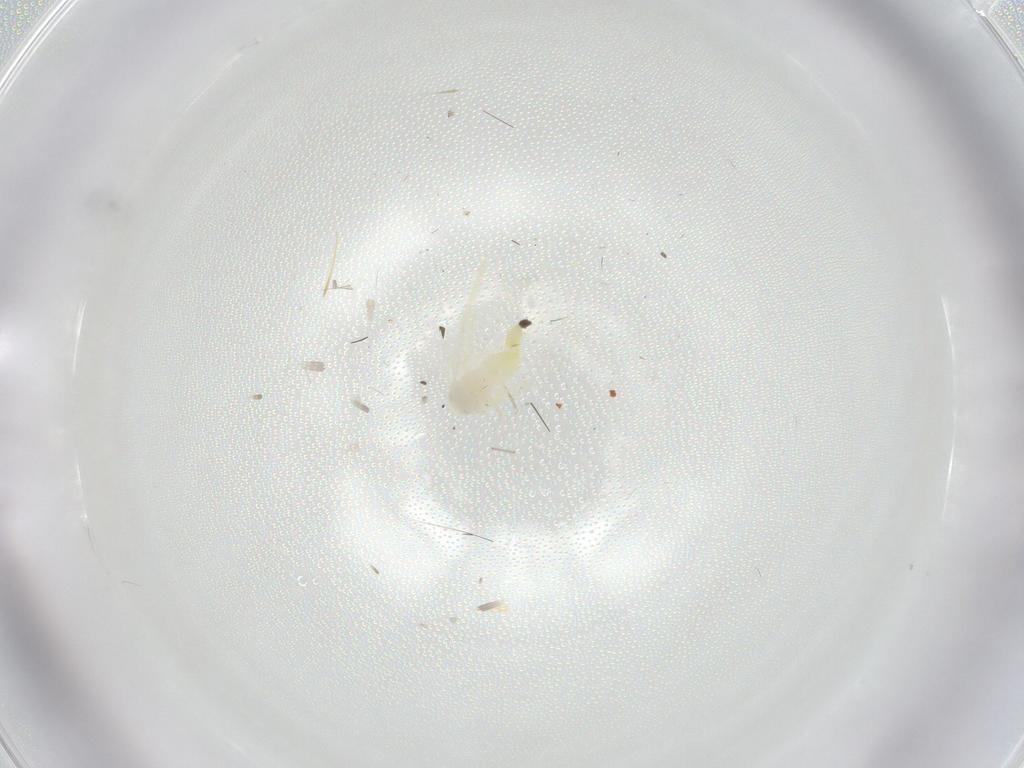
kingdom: Animalia
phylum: Arthropoda
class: Insecta
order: Hemiptera
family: Aleyrodidae
